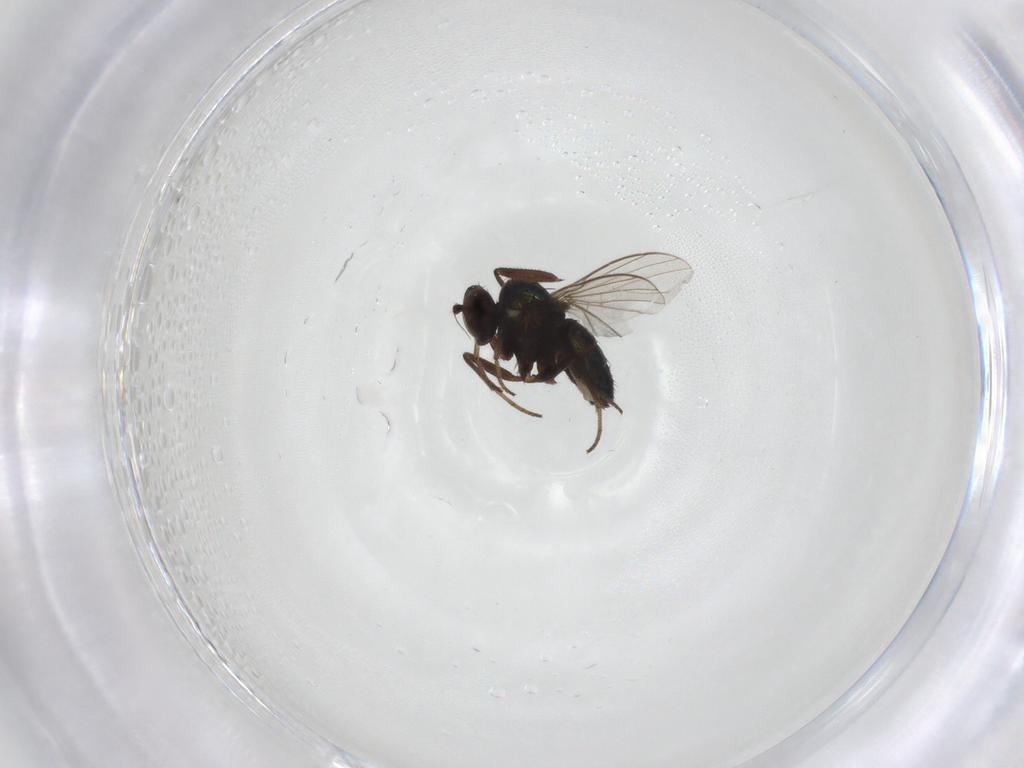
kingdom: Animalia
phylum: Arthropoda
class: Insecta
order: Diptera
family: Dolichopodidae
